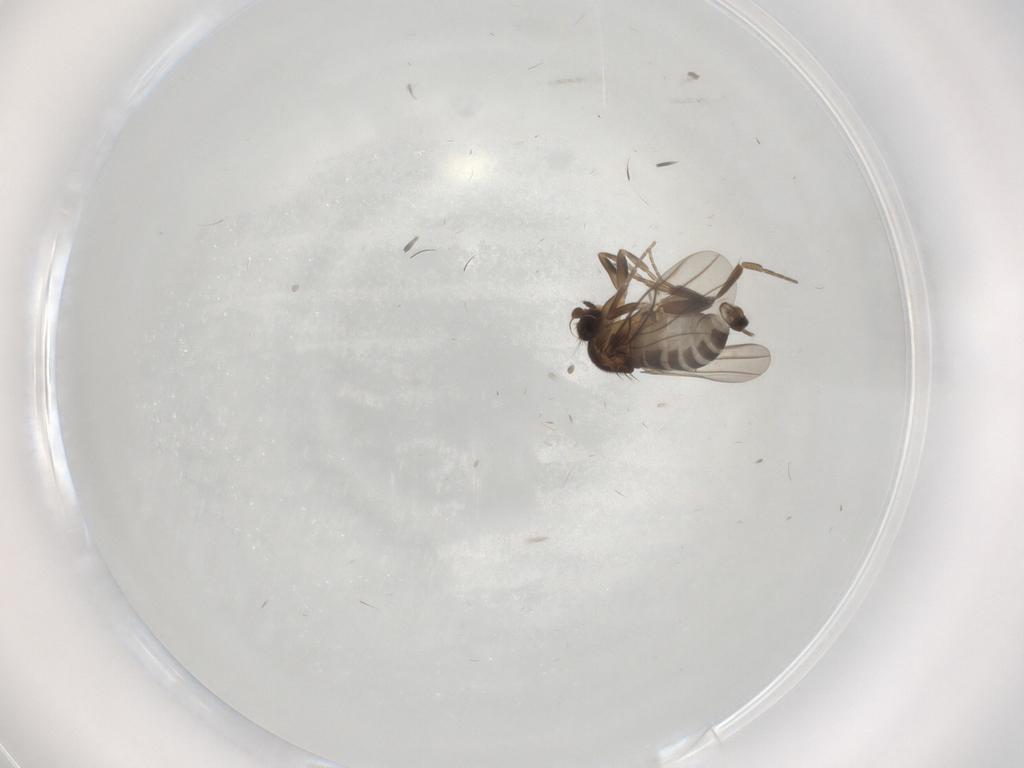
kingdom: Animalia
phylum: Arthropoda
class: Insecta
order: Diptera
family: Phoridae
